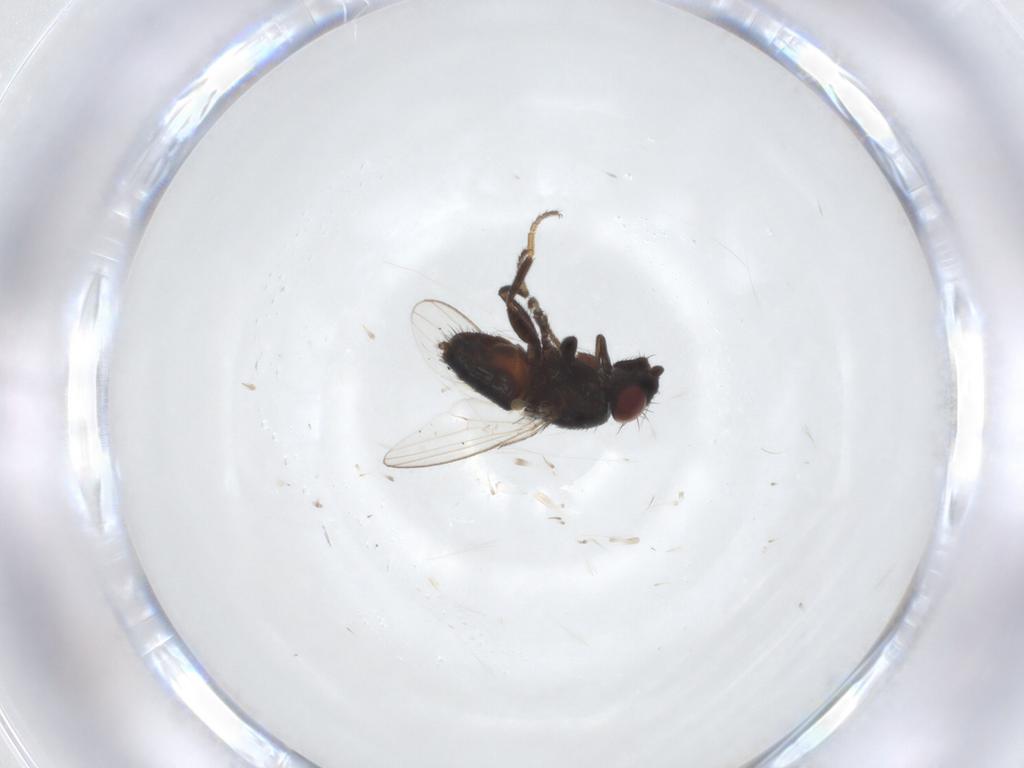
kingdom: Animalia
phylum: Arthropoda
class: Insecta
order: Diptera
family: Milichiidae
